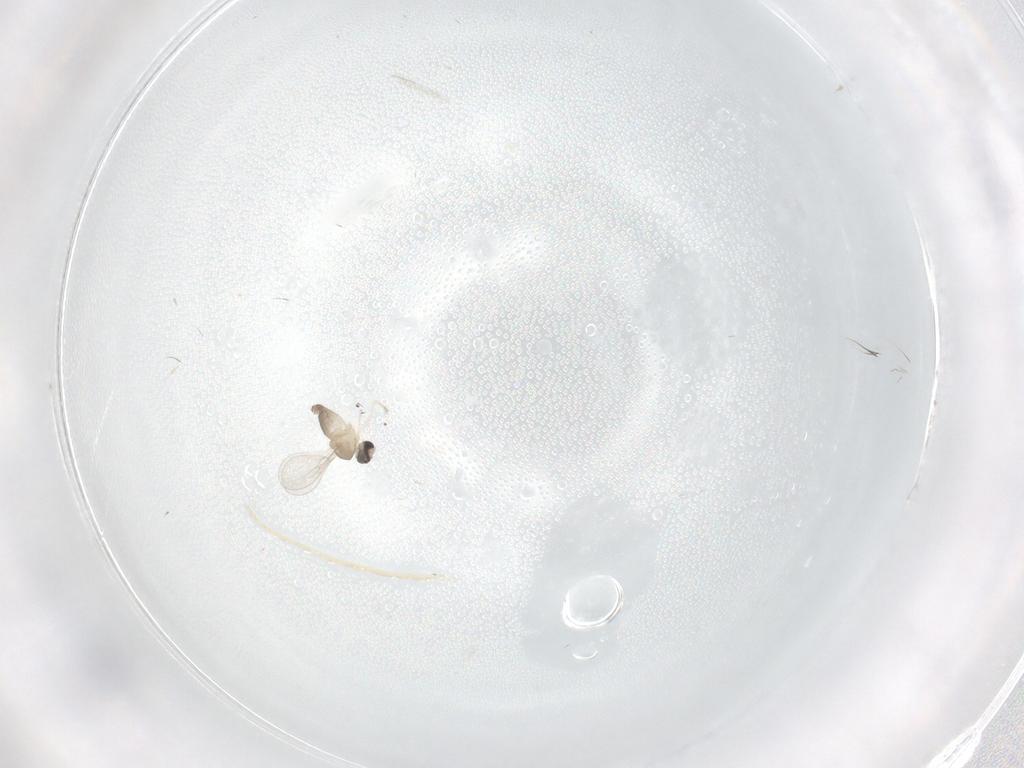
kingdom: Animalia
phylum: Arthropoda
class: Insecta
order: Diptera
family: Cecidomyiidae
